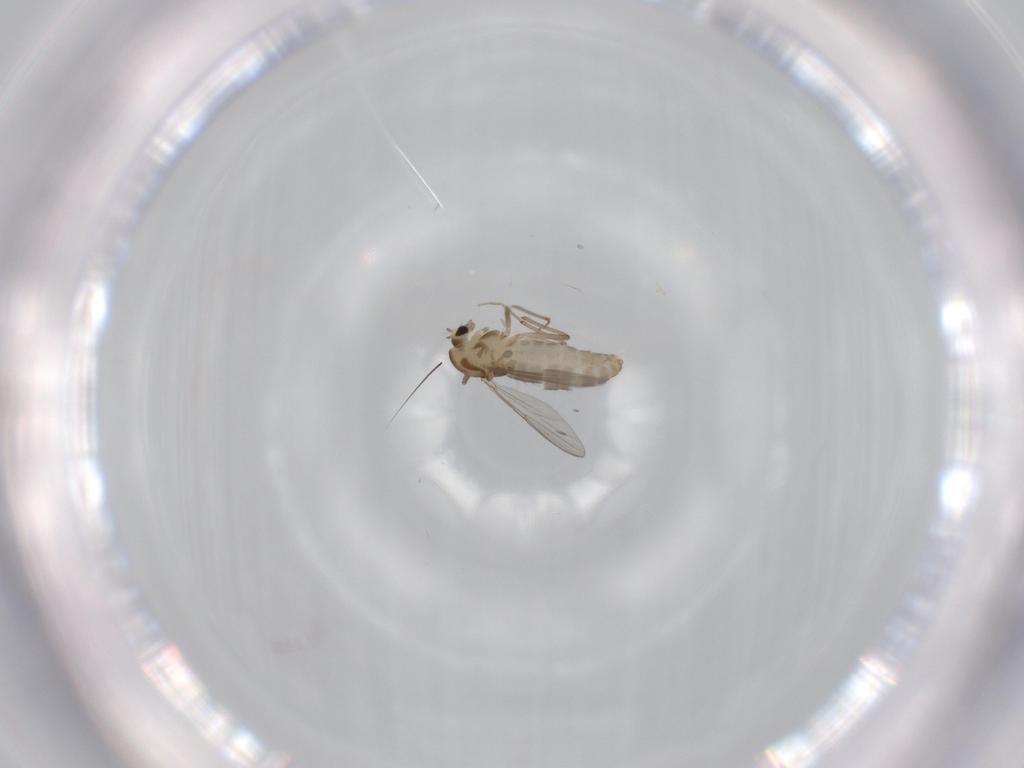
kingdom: Animalia
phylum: Arthropoda
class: Insecta
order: Diptera
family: Chironomidae
